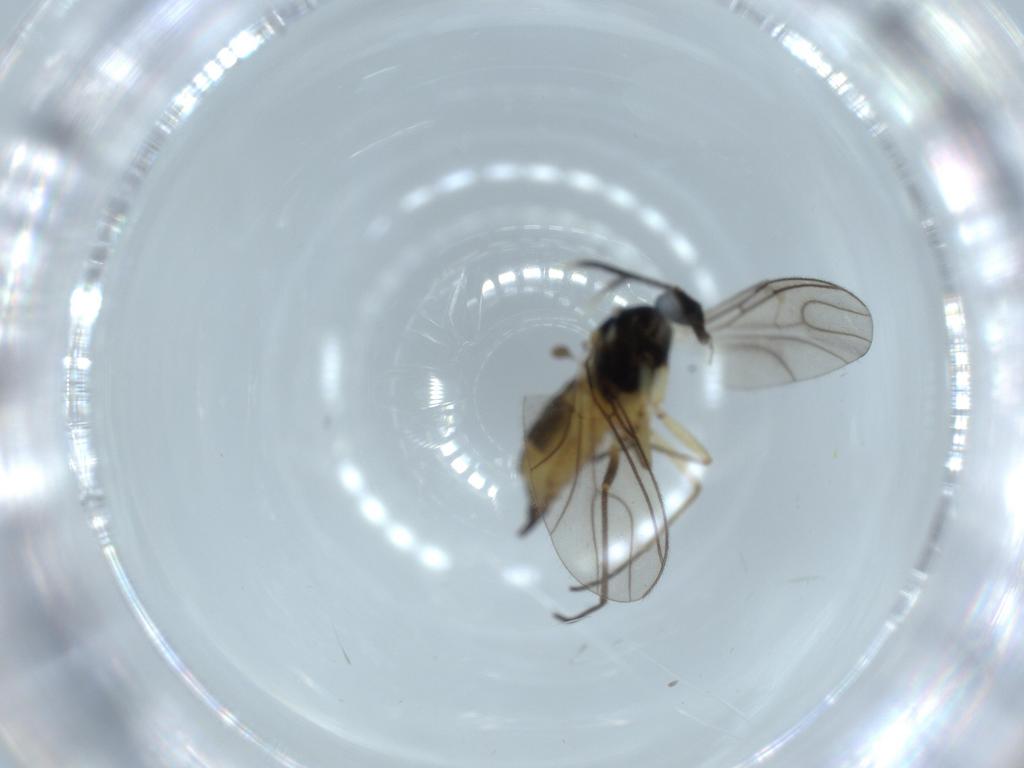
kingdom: Animalia
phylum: Arthropoda
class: Insecta
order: Diptera
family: Sciaridae
